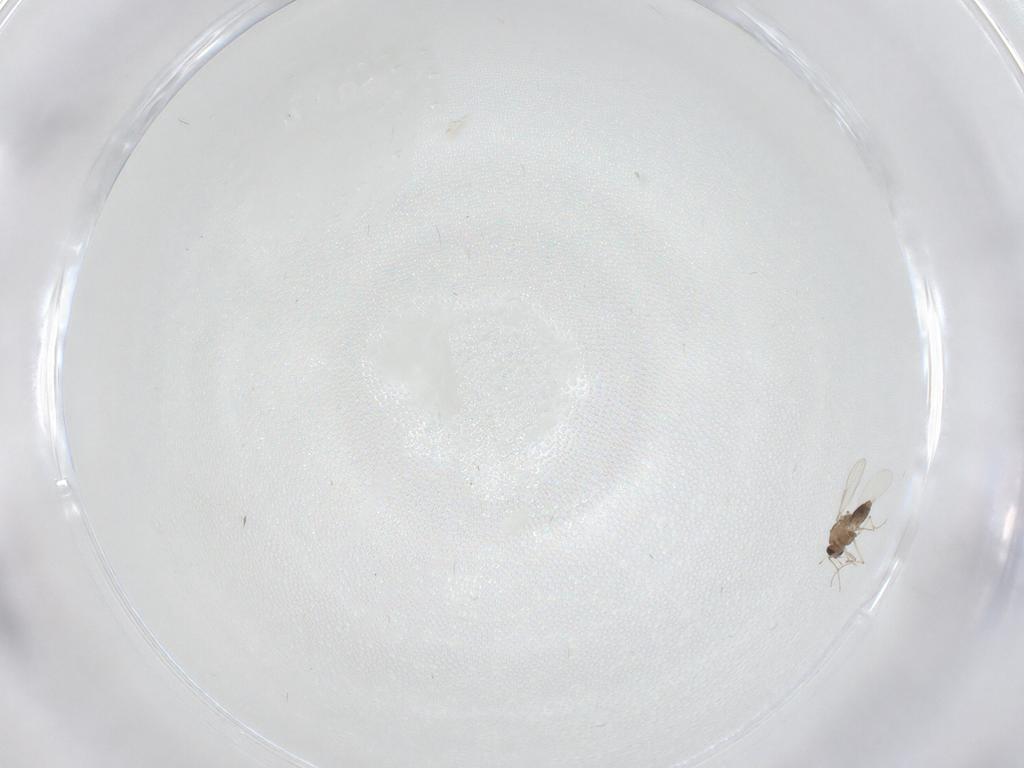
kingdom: Animalia
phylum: Arthropoda
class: Insecta
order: Diptera
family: Chironomidae
